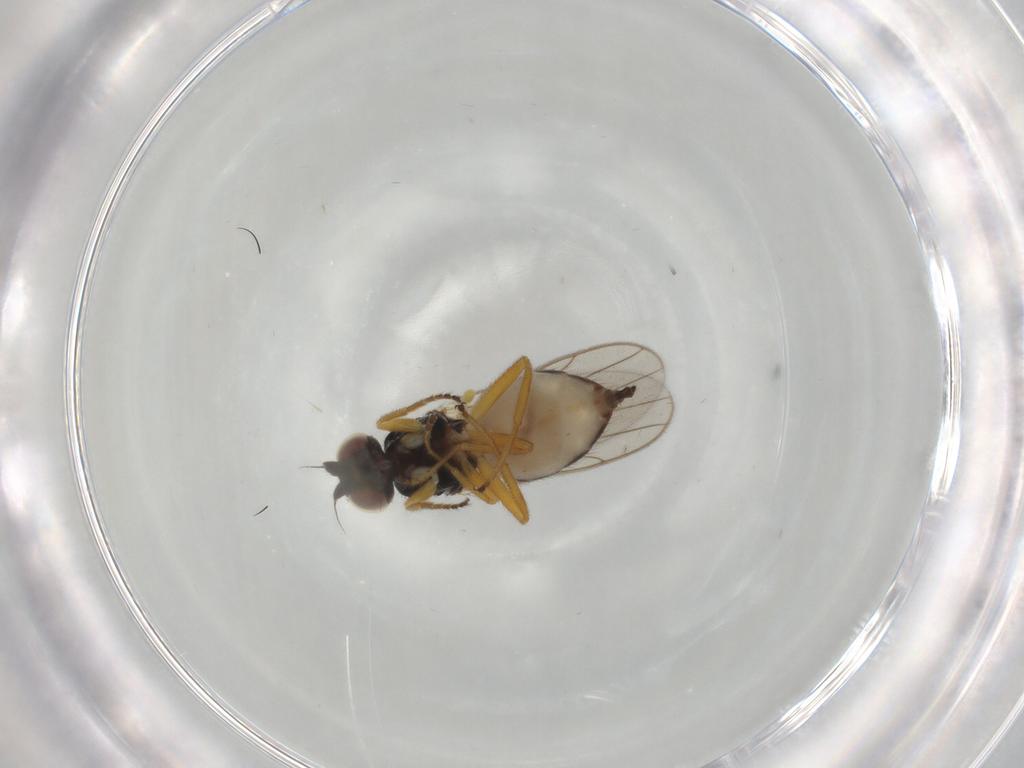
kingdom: Animalia
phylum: Arthropoda
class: Insecta
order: Diptera
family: Chloropidae
